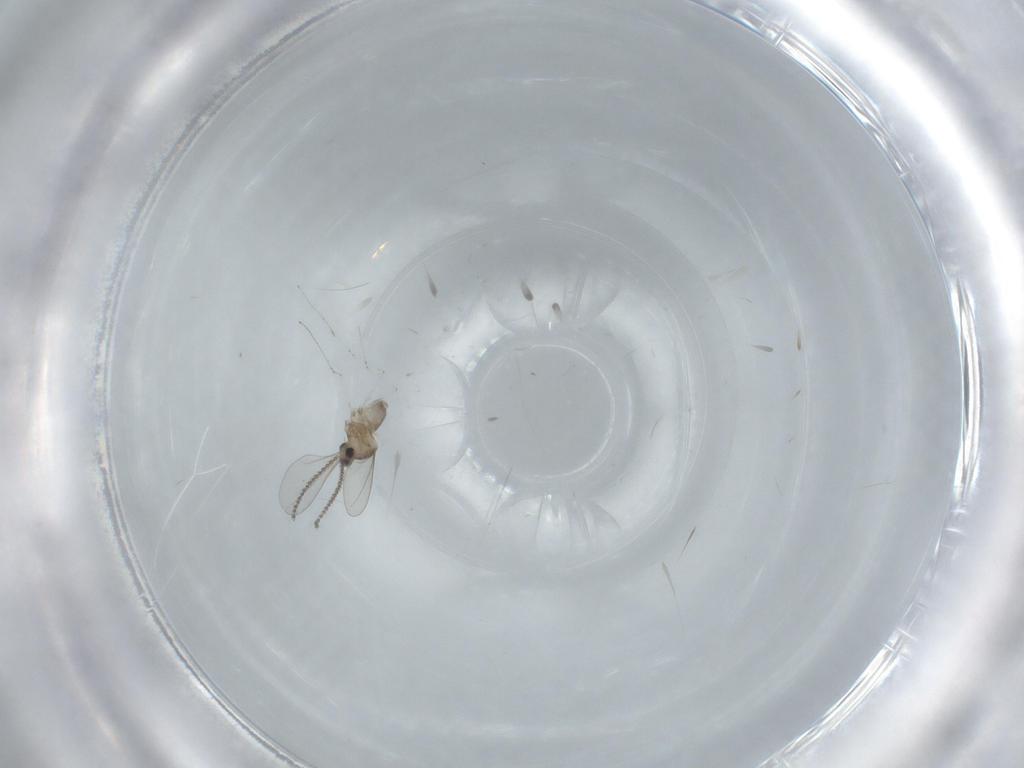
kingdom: Animalia
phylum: Arthropoda
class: Insecta
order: Diptera
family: Cecidomyiidae
